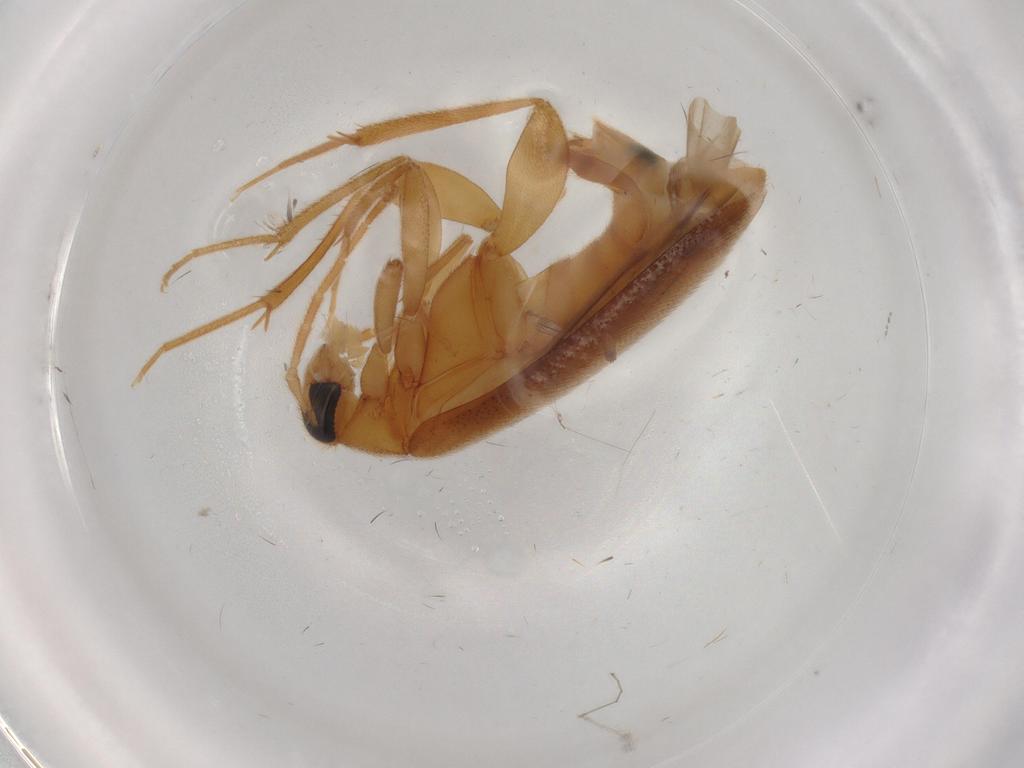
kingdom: Animalia
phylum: Arthropoda
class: Insecta
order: Coleoptera
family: Scraptiidae
